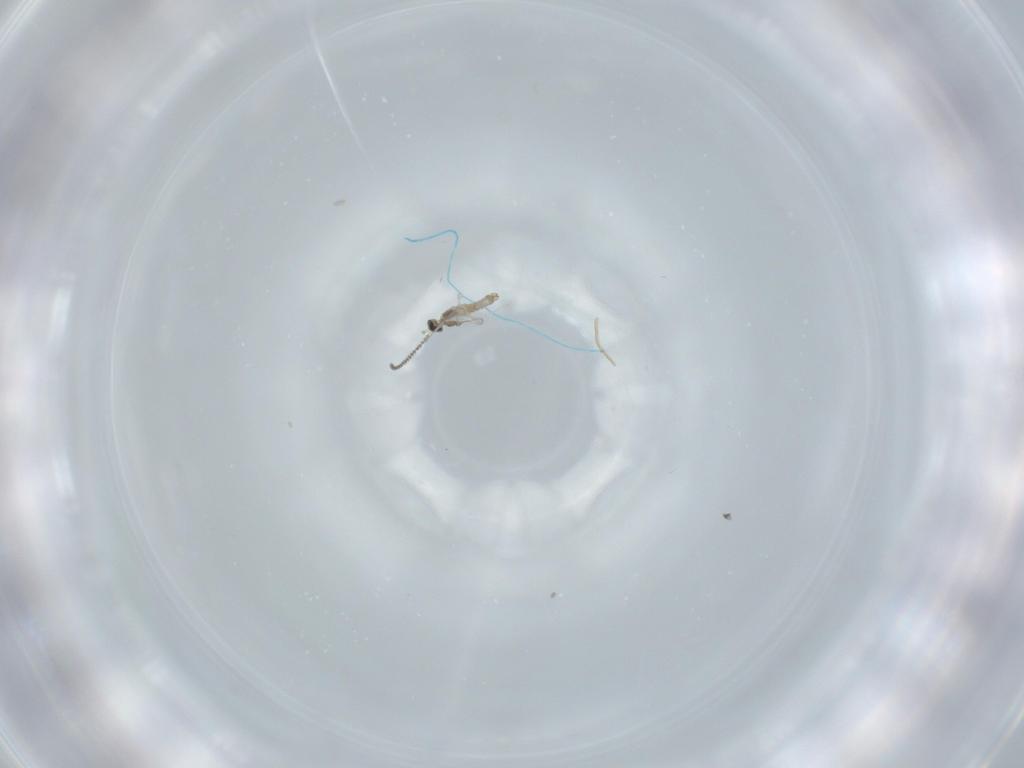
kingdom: Animalia
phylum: Arthropoda
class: Insecta
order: Diptera
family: Cecidomyiidae
